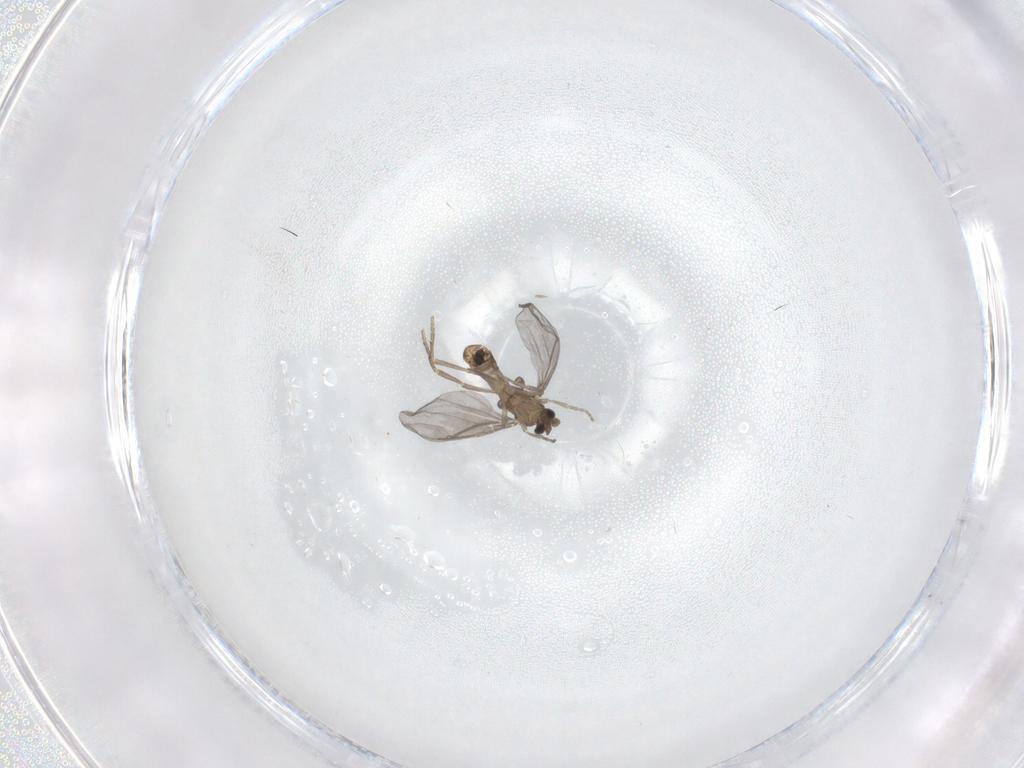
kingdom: Animalia
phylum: Arthropoda
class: Insecta
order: Diptera
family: Phoridae
